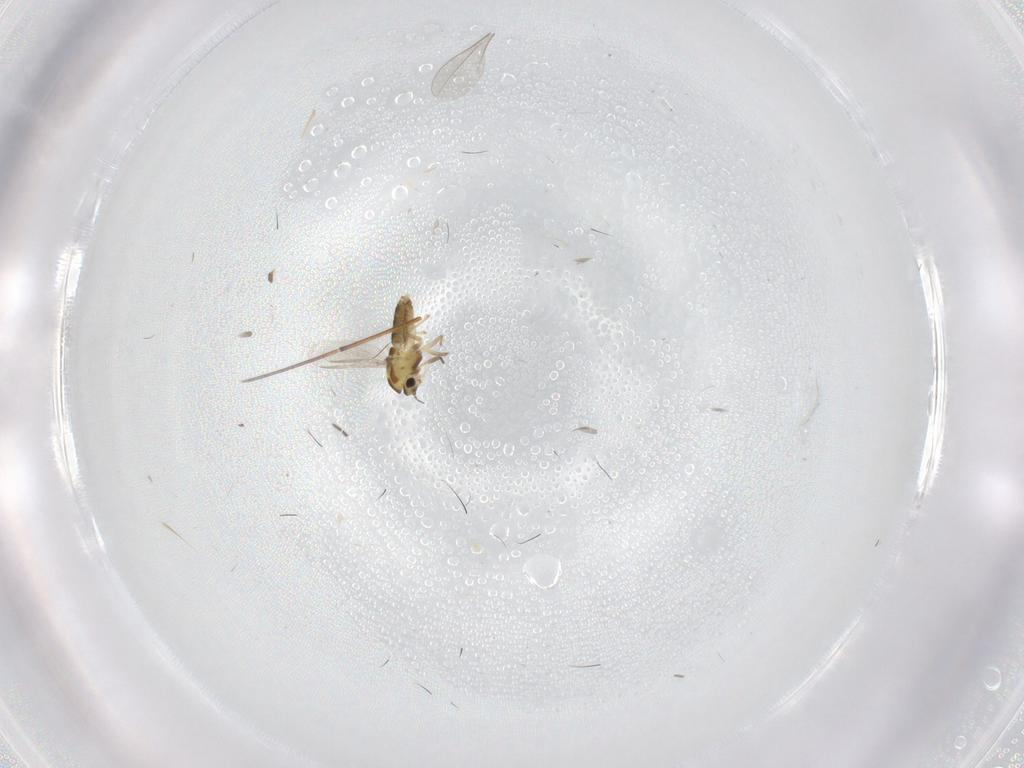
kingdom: Animalia
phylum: Arthropoda
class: Insecta
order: Diptera
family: Chironomidae
